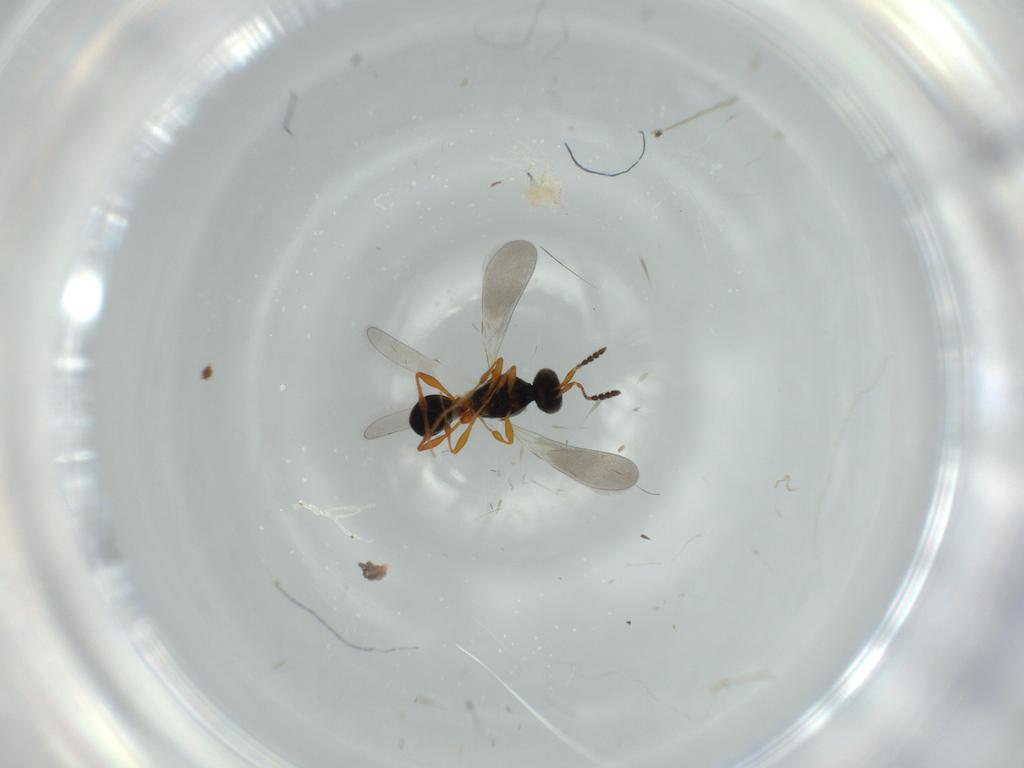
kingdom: Animalia
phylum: Arthropoda
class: Insecta
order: Hymenoptera
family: Platygastridae
